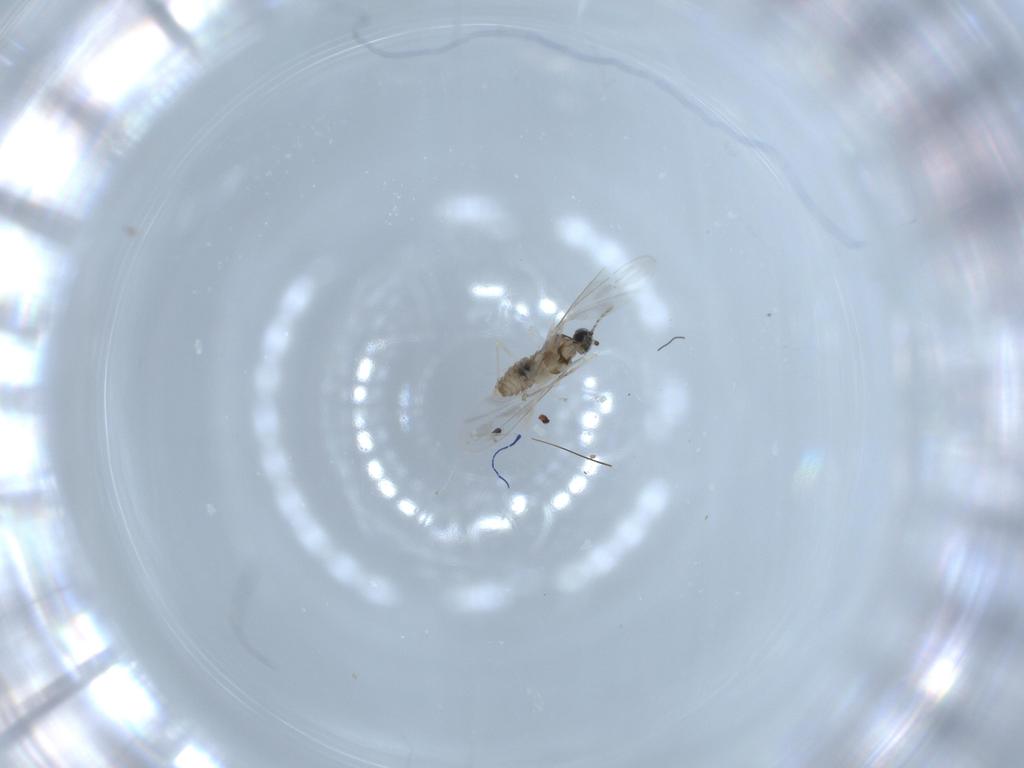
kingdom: Animalia
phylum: Arthropoda
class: Insecta
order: Diptera
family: Cecidomyiidae
